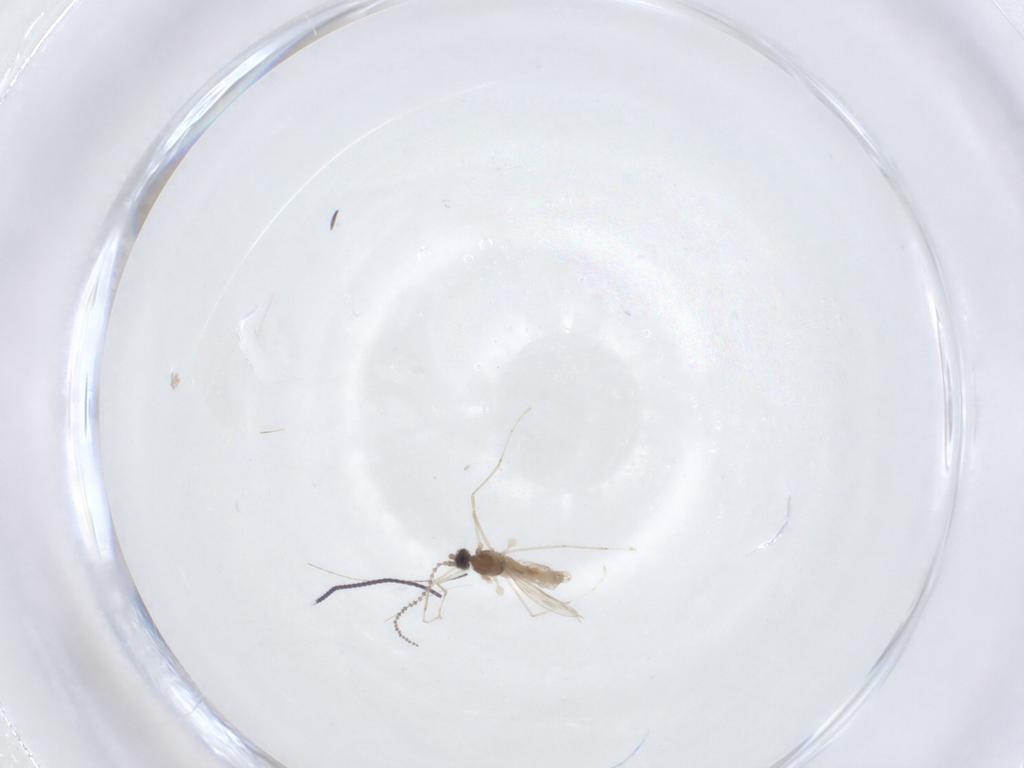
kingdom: Animalia
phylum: Arthropoda
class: Insecta
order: Diptera
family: Cecidomyiidae
